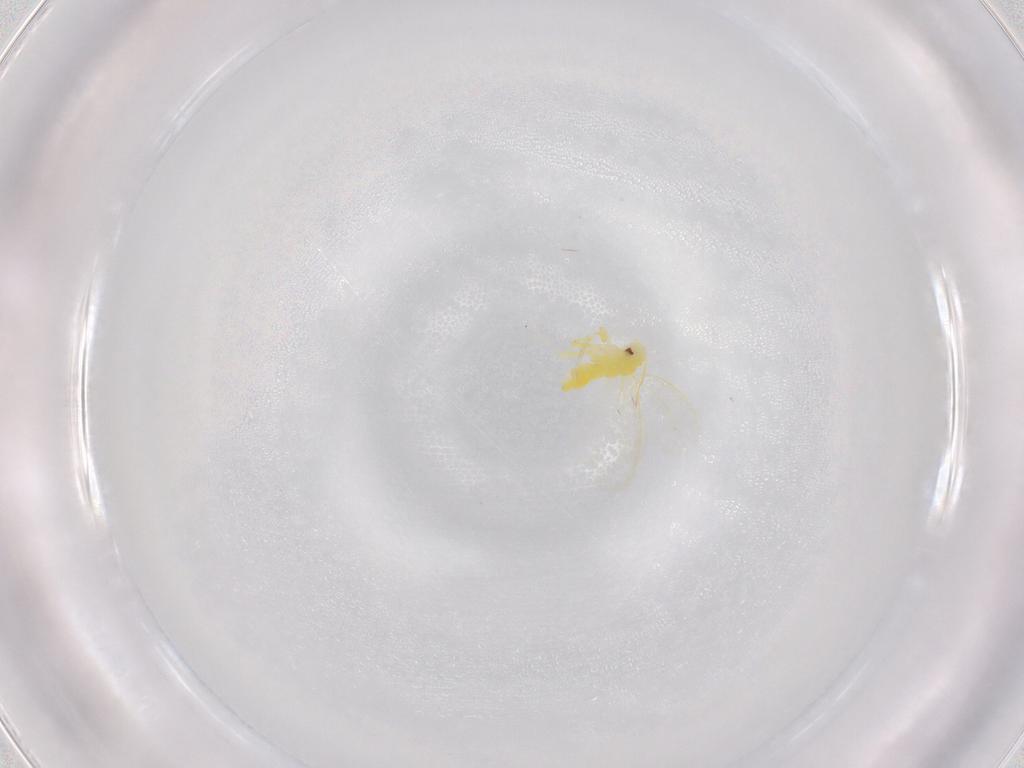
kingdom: Animalia
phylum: Arthropoda
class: Insecta
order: Hemiptera
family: Aleyrodidae
